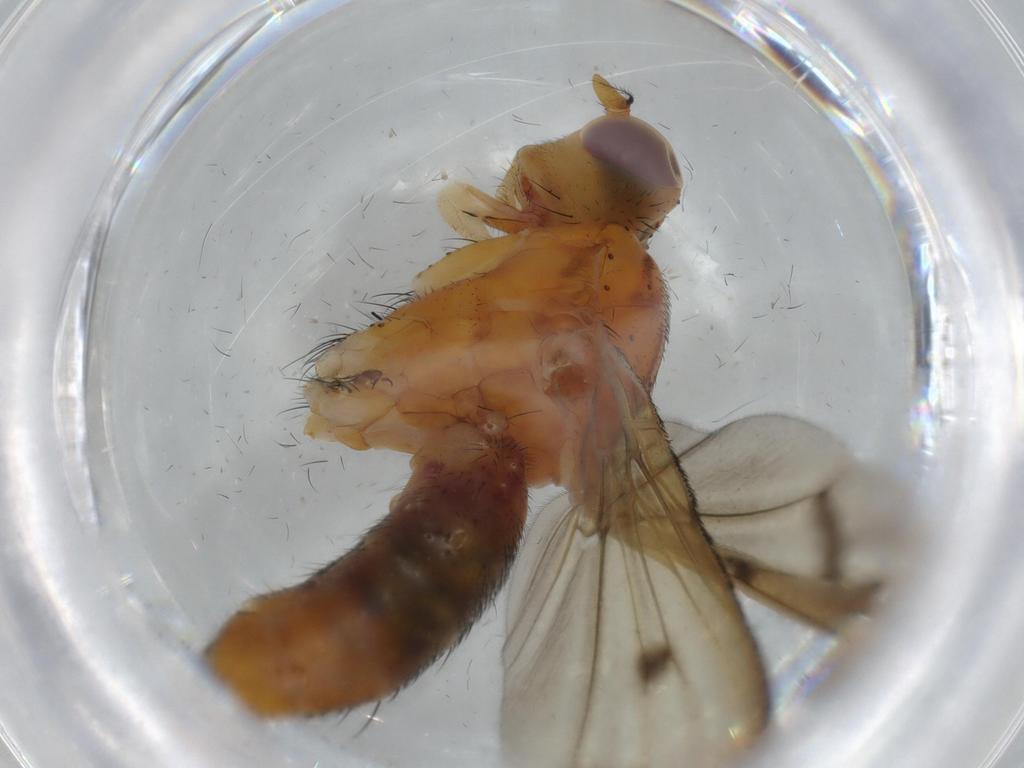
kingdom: Animalia
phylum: Arthropoda
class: Insecta
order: Diptera
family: Sciomyzidae
